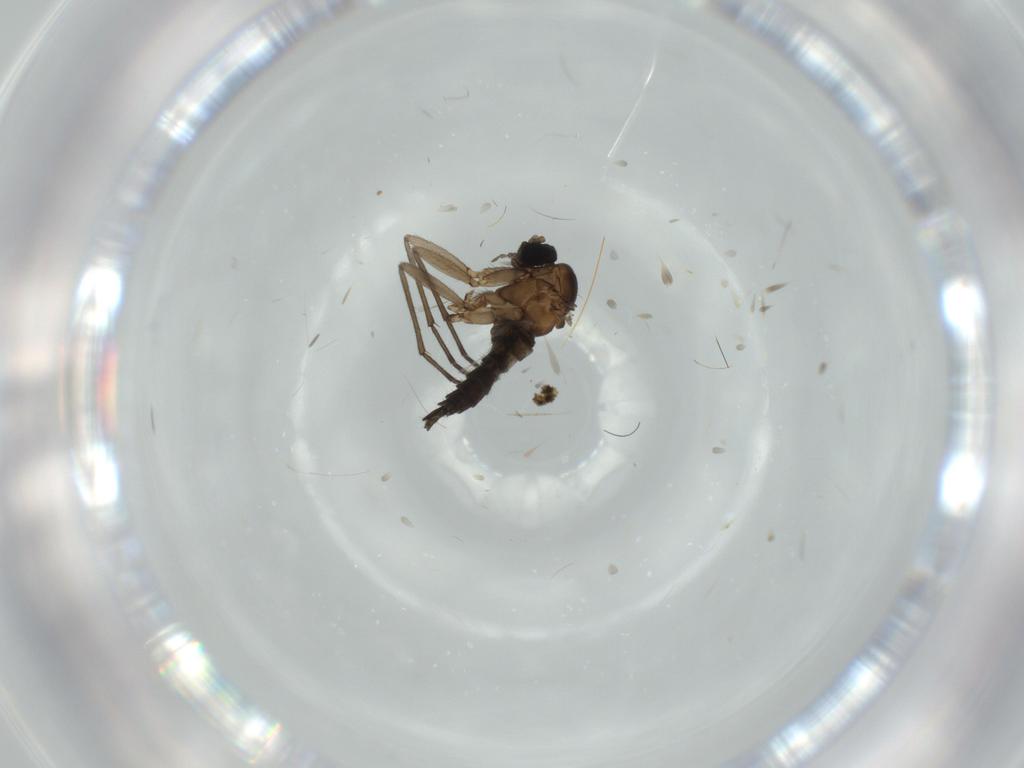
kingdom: Animalia
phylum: Arthropoda
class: Insecta
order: Diptera
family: Sciaridae
